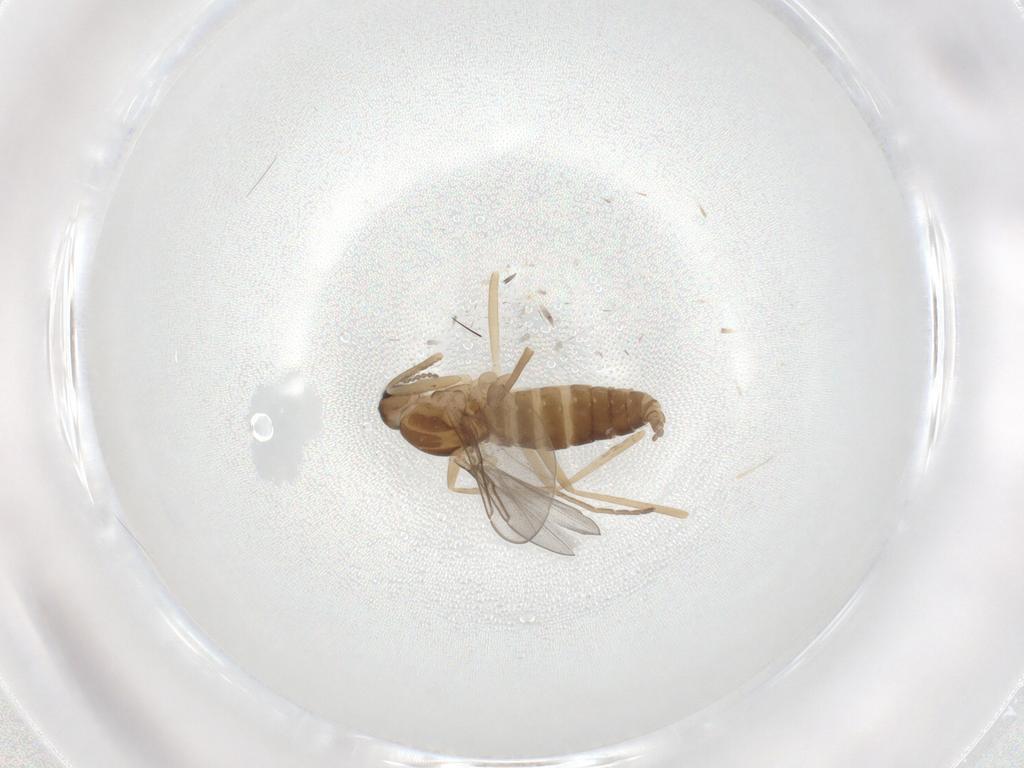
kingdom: Animalia
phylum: Arthropoda
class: Insecta
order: Diptera
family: Cecidomyiidae
